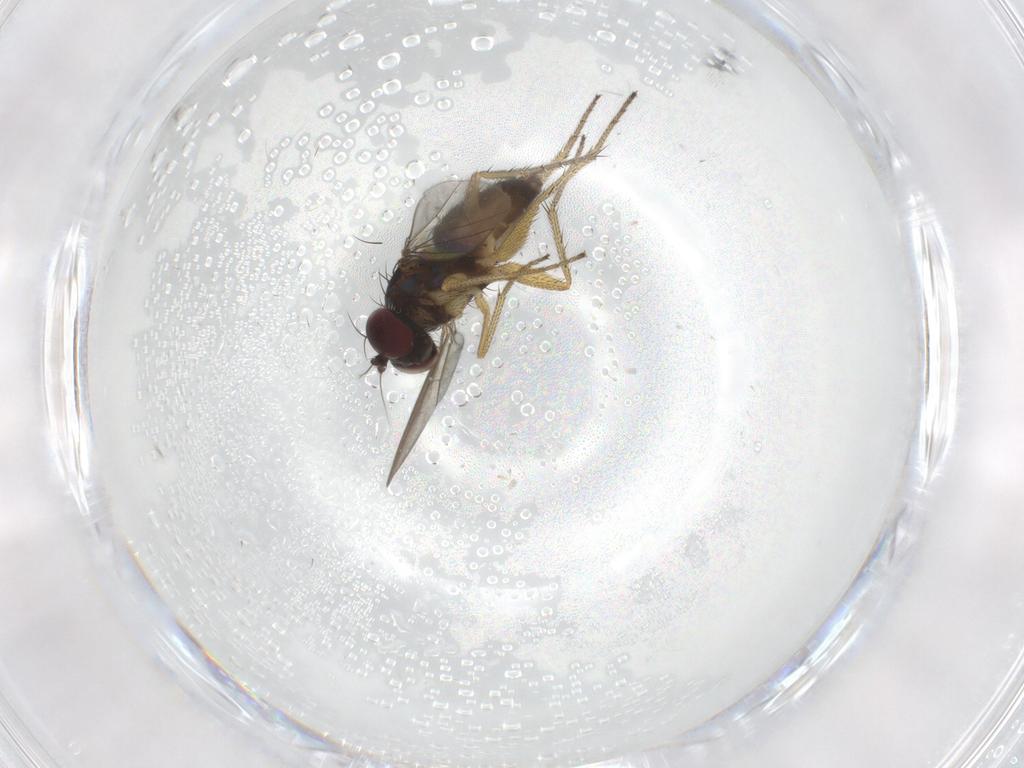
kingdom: Animalia
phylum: Arthropoda
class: Insecta
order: Diptera
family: Dolichopodidae
